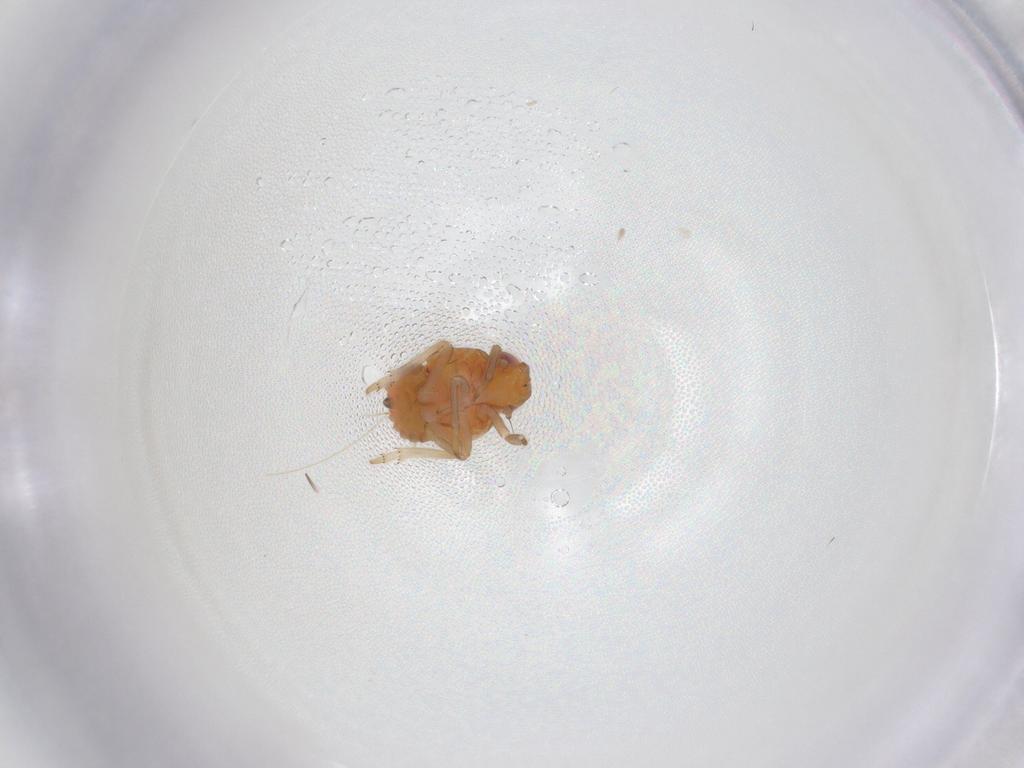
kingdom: Animalia
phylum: Arthropoda
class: Insecta
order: Hemiptera
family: Fulgoroidea_incertae_sedis
